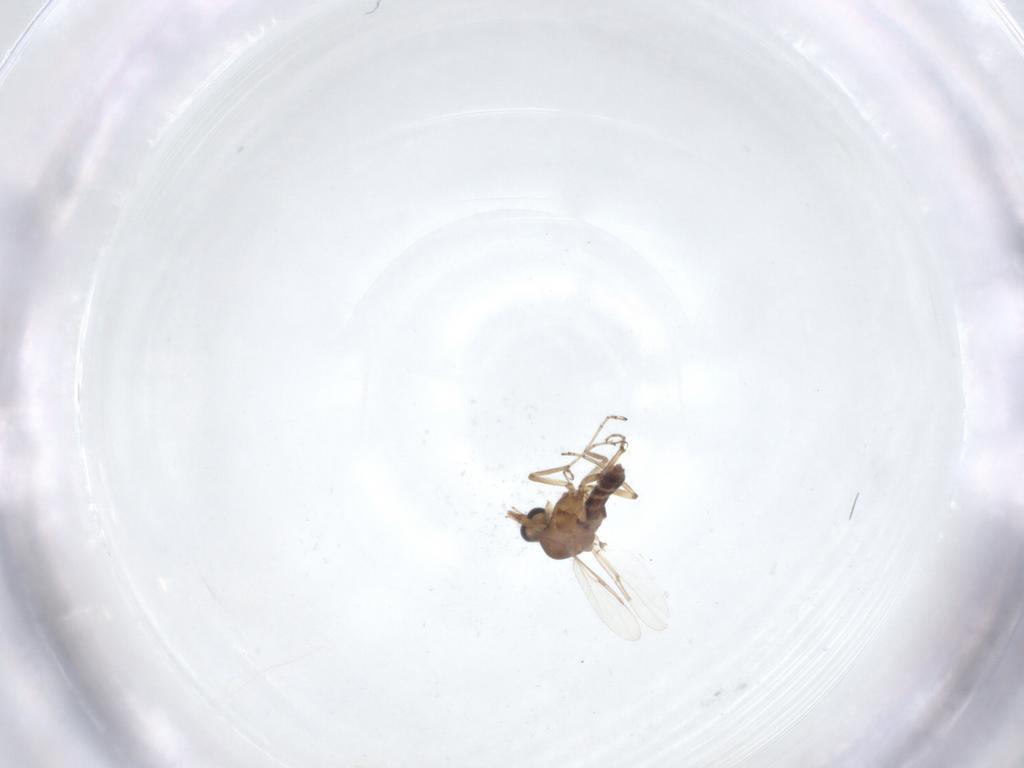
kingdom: Animalia
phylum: Arthropoda
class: Insecta
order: Diptera
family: Ceratopogonidae
